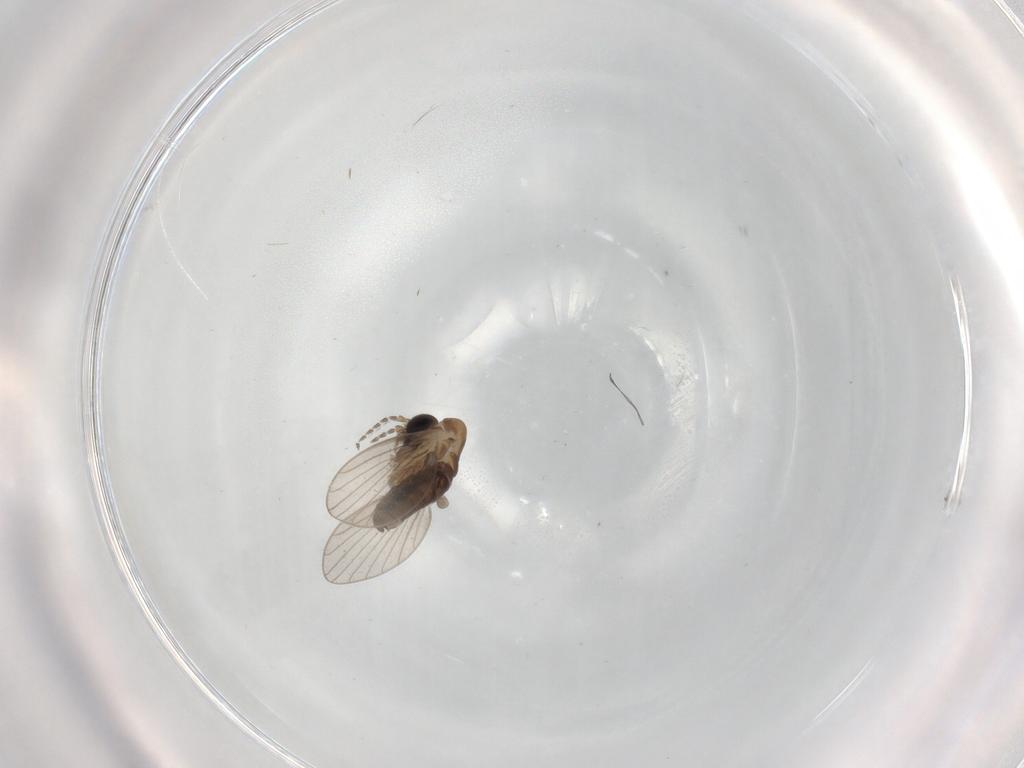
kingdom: Animalia
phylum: Arthropoda
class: Insecta
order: Diptera
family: Psychodidae
